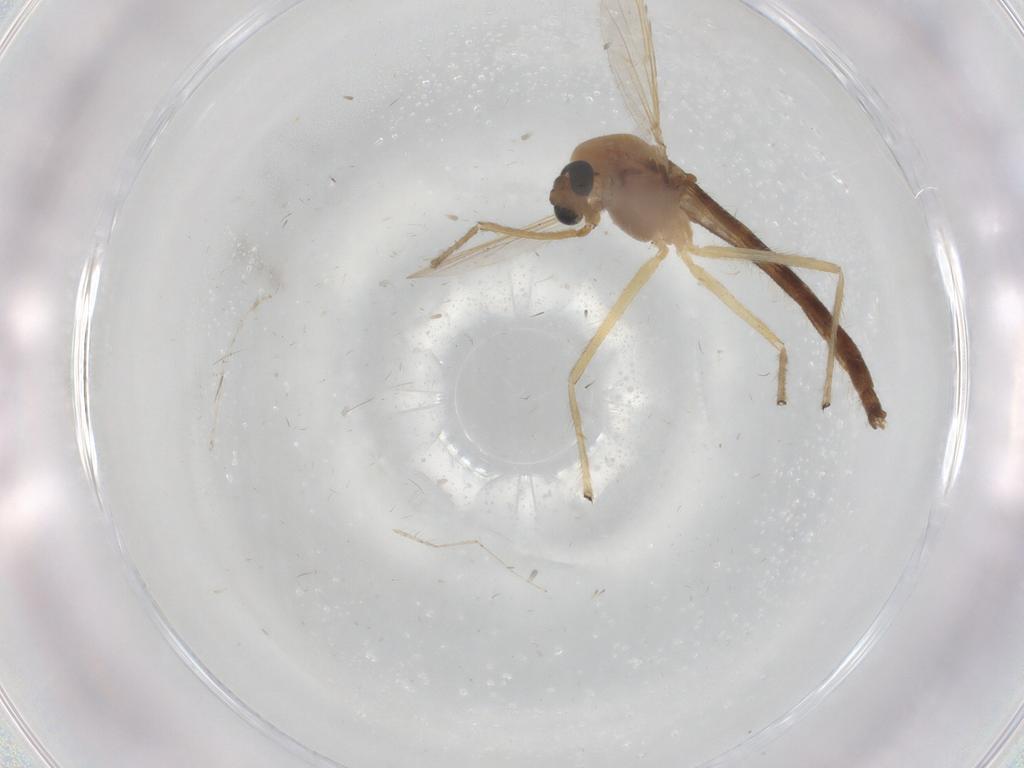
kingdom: Animalia
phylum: Arthropoda
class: Insecta
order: Diptera
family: Chironomidae
